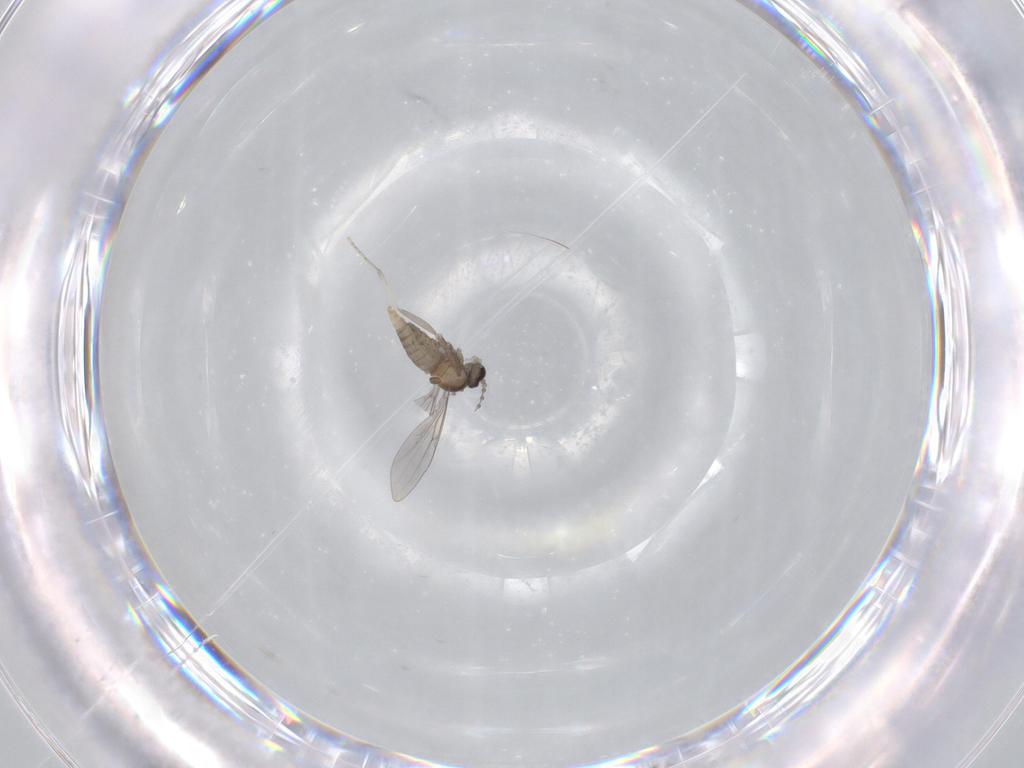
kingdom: Animalia
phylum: Arthropoda
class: Insecta
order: Diptera
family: Cecidomyiidae
